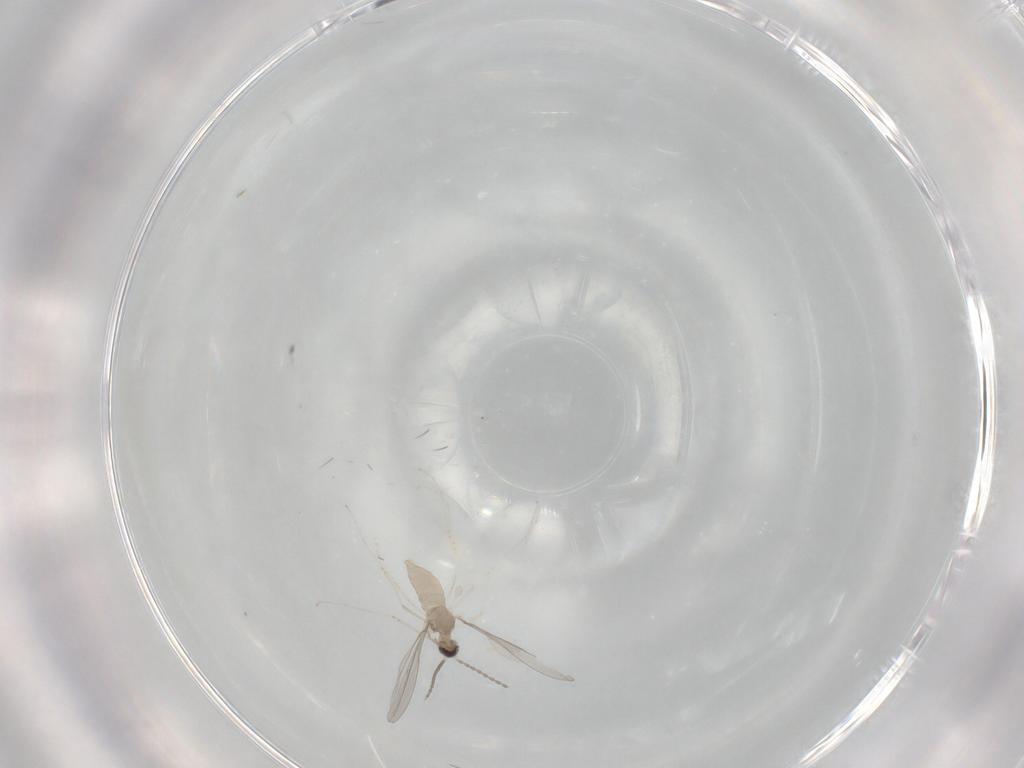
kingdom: Animalia
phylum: Arthropoda
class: Insecta
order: Diptera
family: Cecidomyiidae
